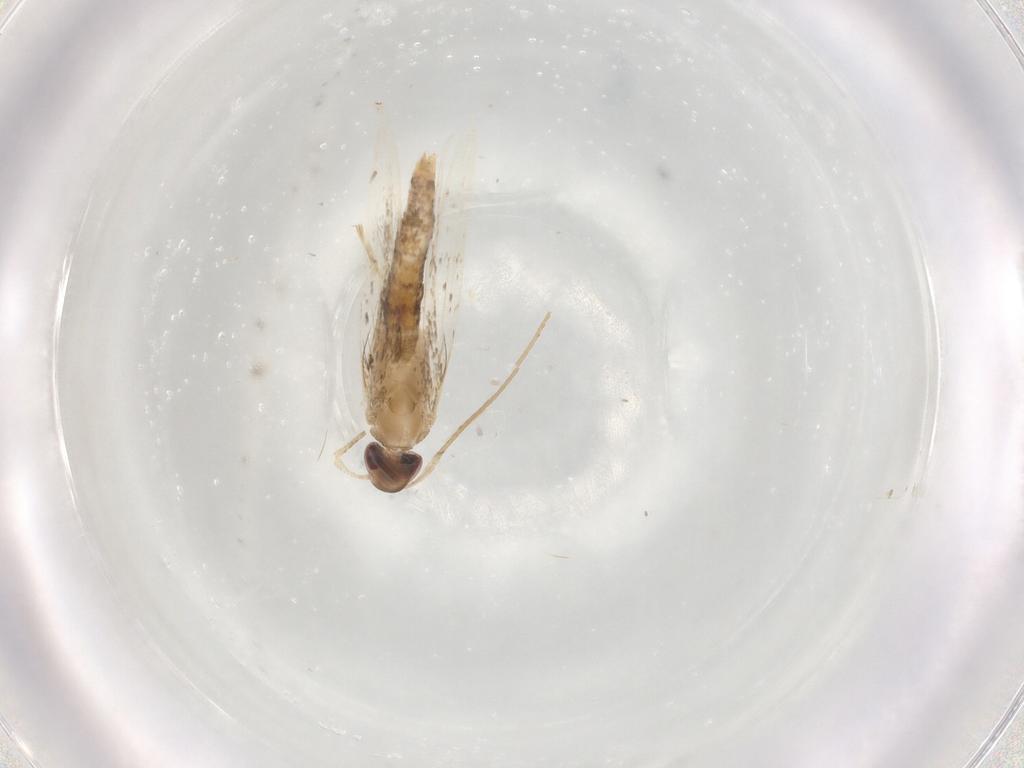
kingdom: Animalia
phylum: Arthropoda
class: Insecta
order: Lepidoptera
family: Cosmopterigidae
